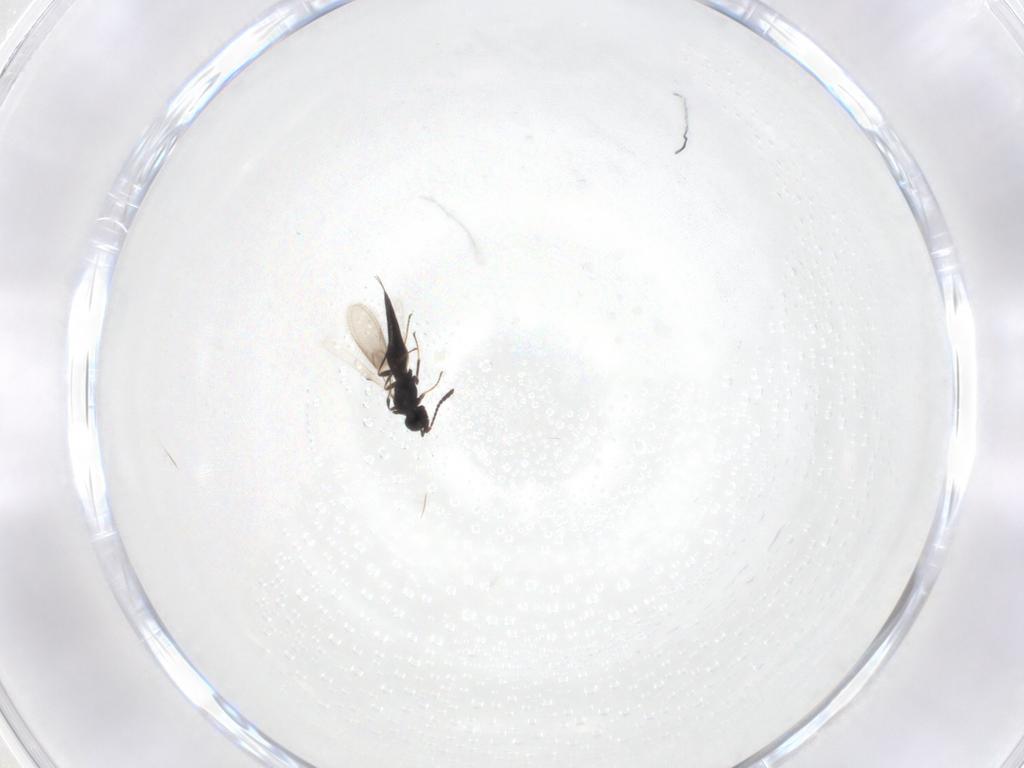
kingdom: Animalia
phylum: Arthropoda
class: Insecta
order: Hymenoptera
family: Scelionidae
